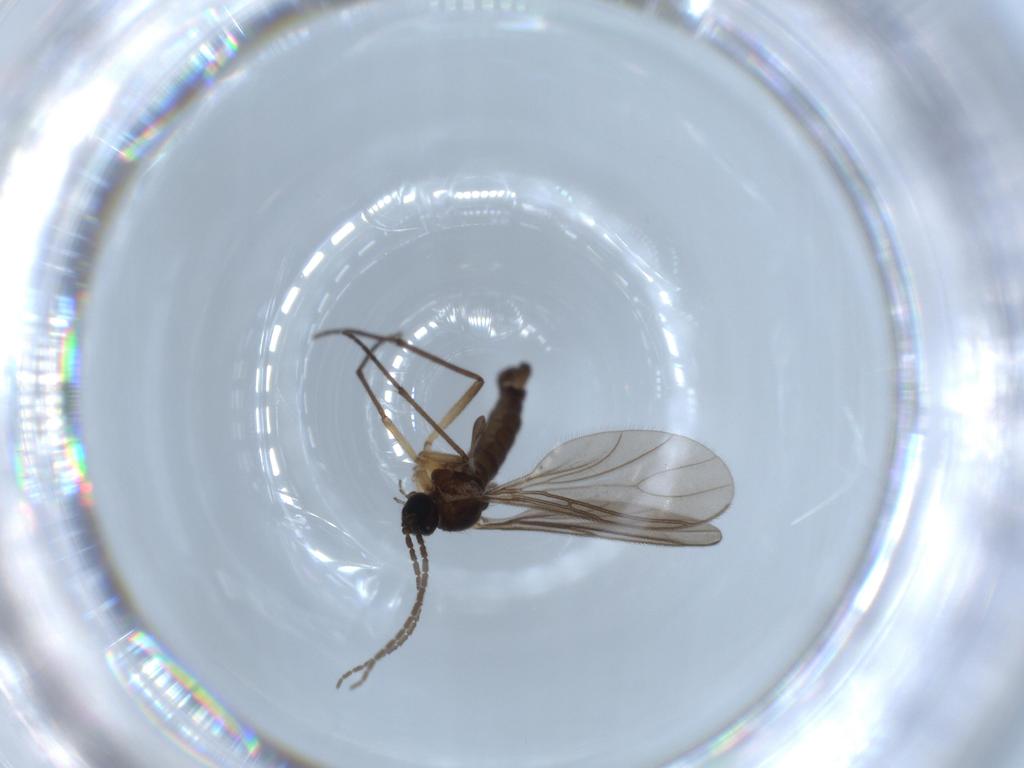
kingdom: Animalia
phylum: Arthropoda
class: Insecta
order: Diptera
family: Sciaridae
